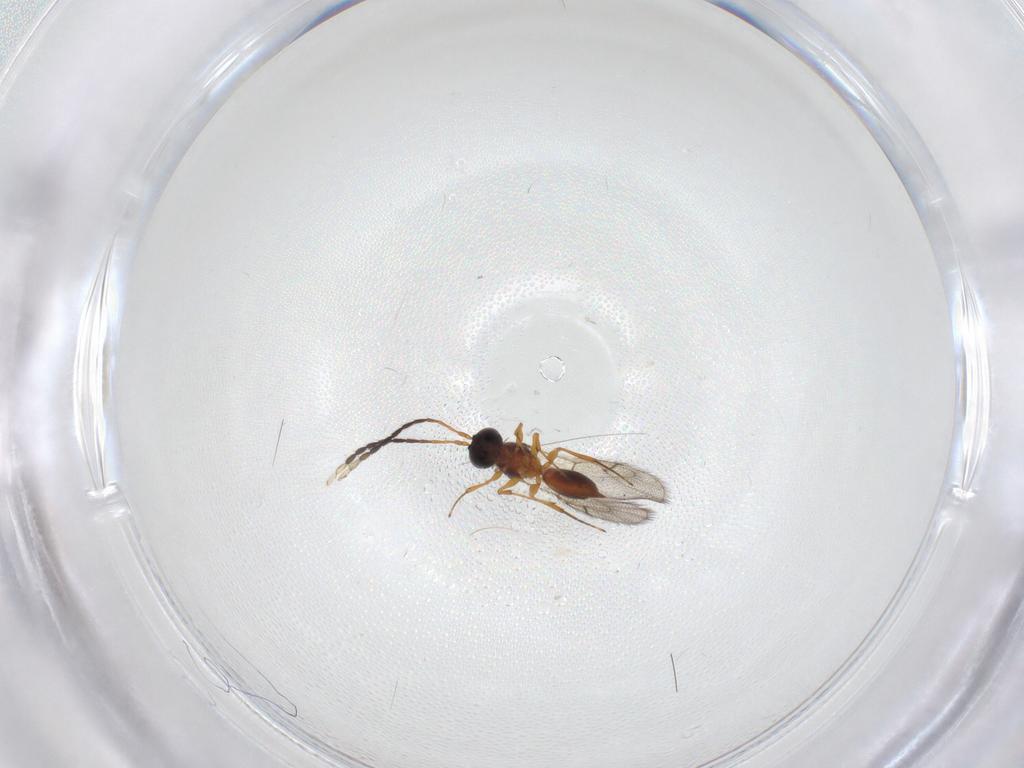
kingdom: Animalia
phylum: Arthropoda
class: Insecta
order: Hymenoptera
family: Figitidae
